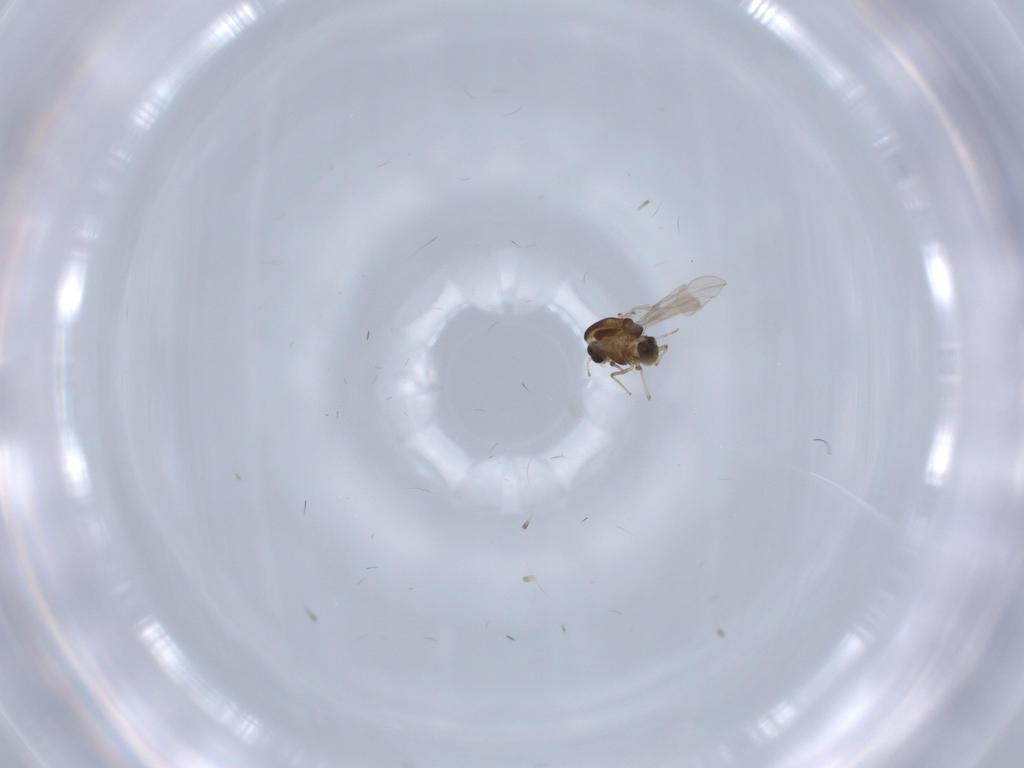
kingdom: Animalia
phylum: Arthropoda
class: Insecta
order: Diptera
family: Chironomidae
